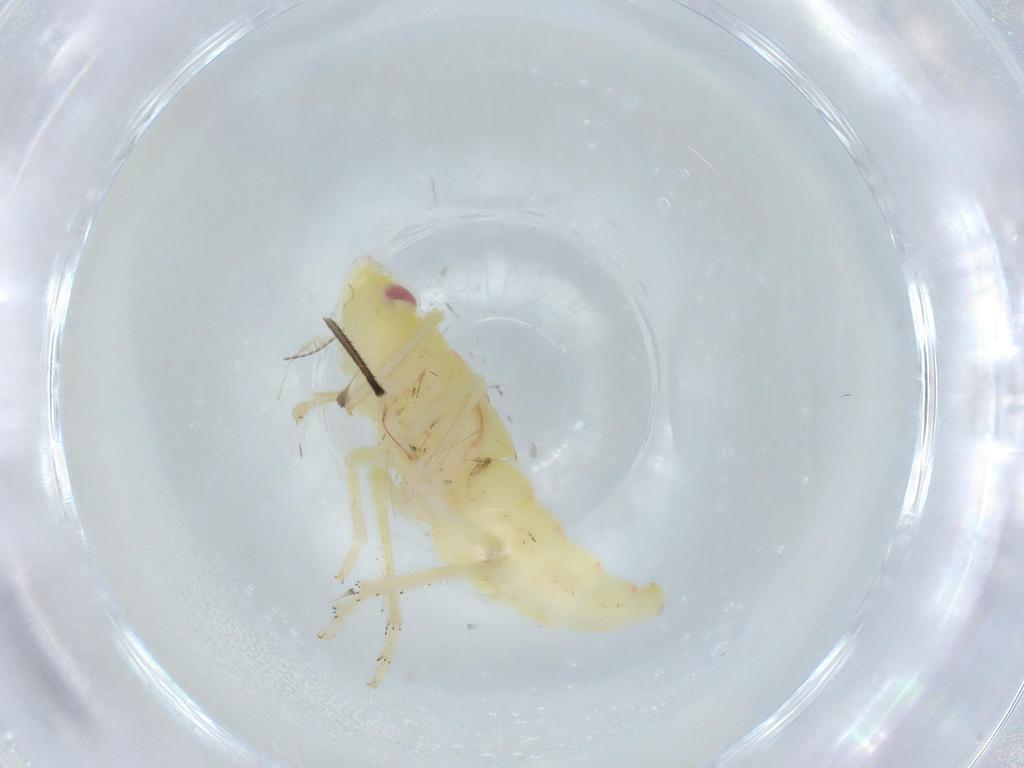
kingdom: Animalia
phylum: Arthropoda
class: Insecta
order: Hemiptera
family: Tropiduchidae
